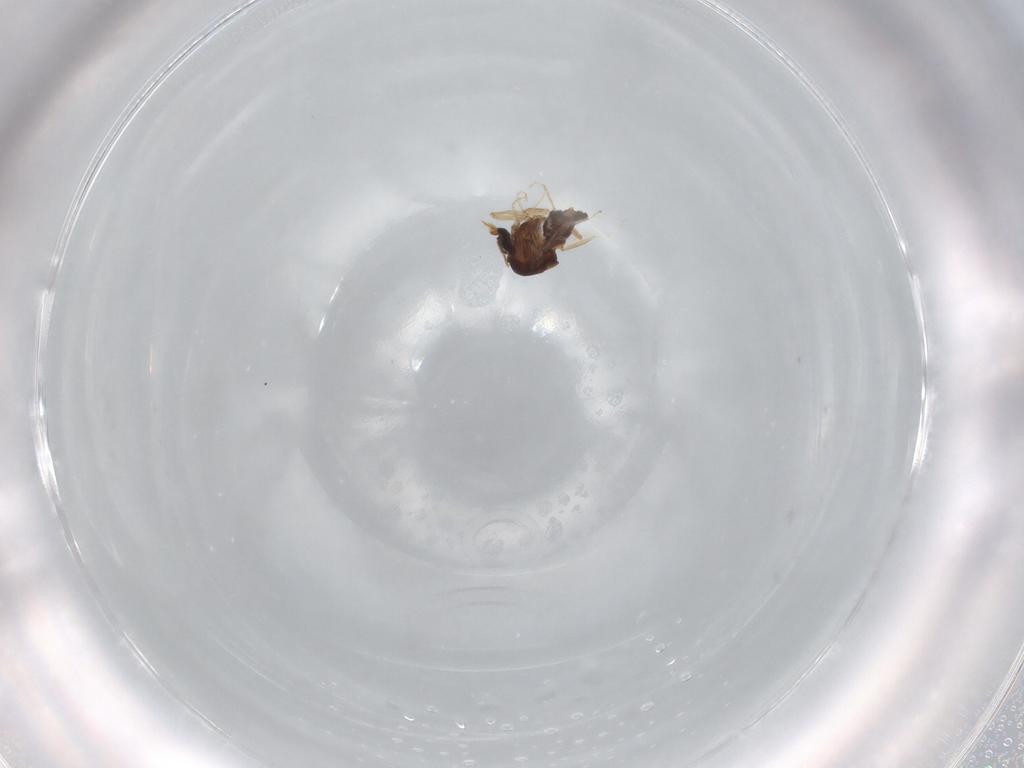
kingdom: Animalia
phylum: Arthropoda
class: Insecta
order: Diptera
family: Ceratopogonidae
